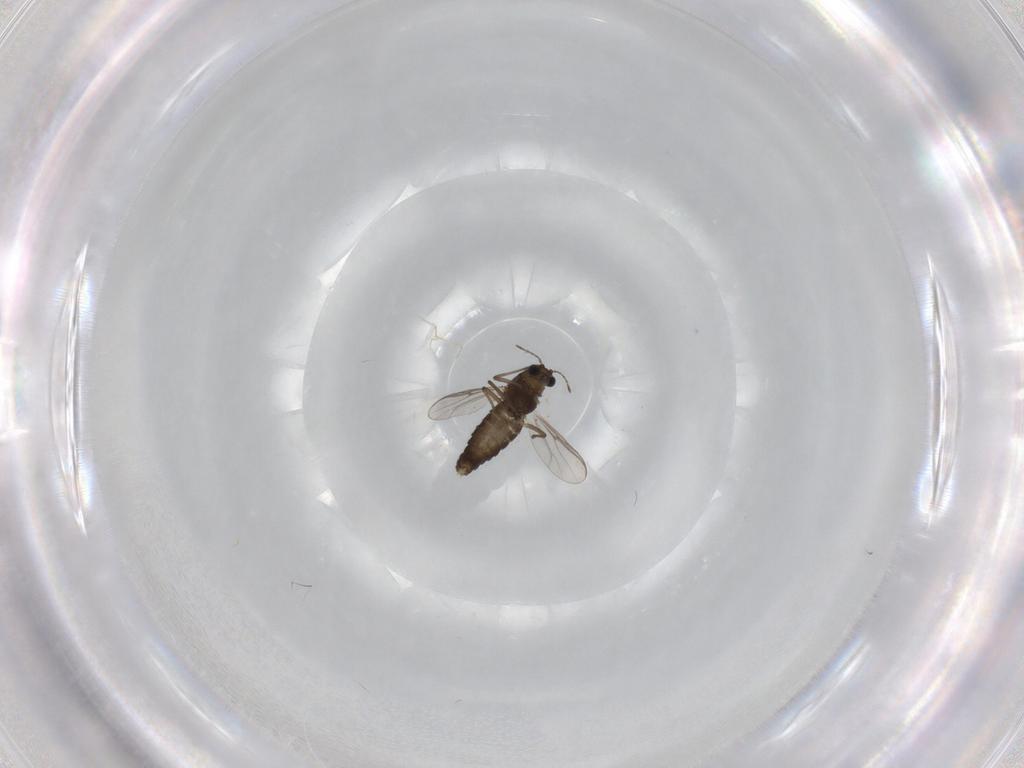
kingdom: Animalia
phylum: Arthropoda
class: Insecta
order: Diptera
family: Chironomidae
